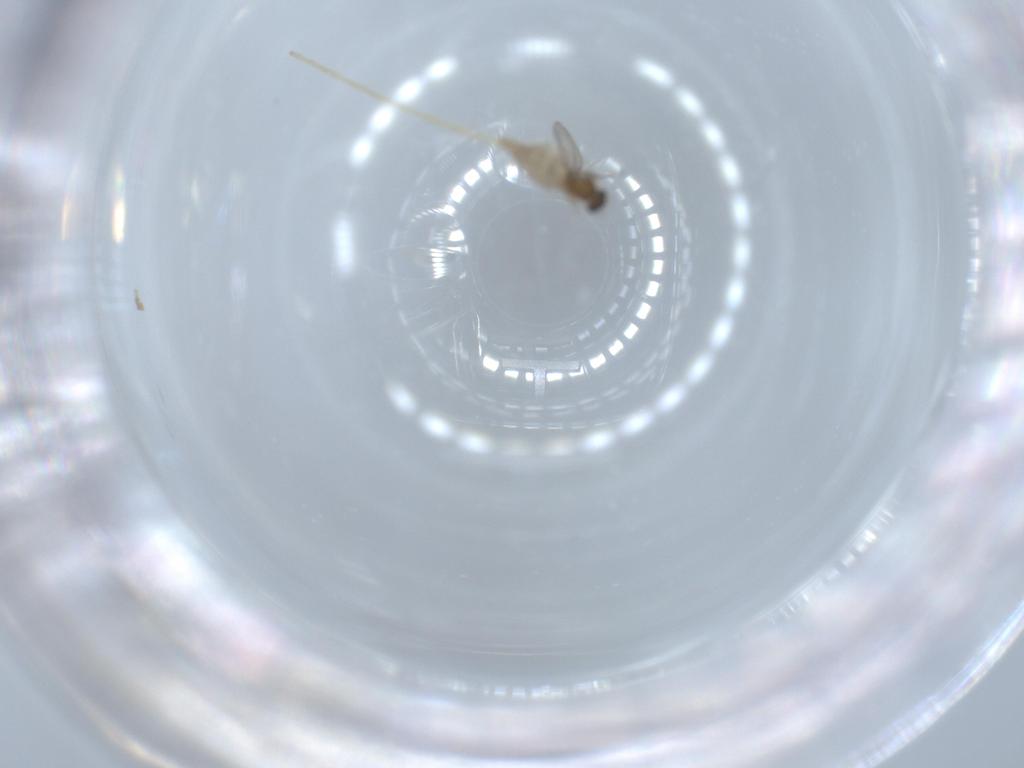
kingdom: Animalia
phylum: Arthropoda
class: Insecta
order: Diptera
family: Cecidomyiidae
